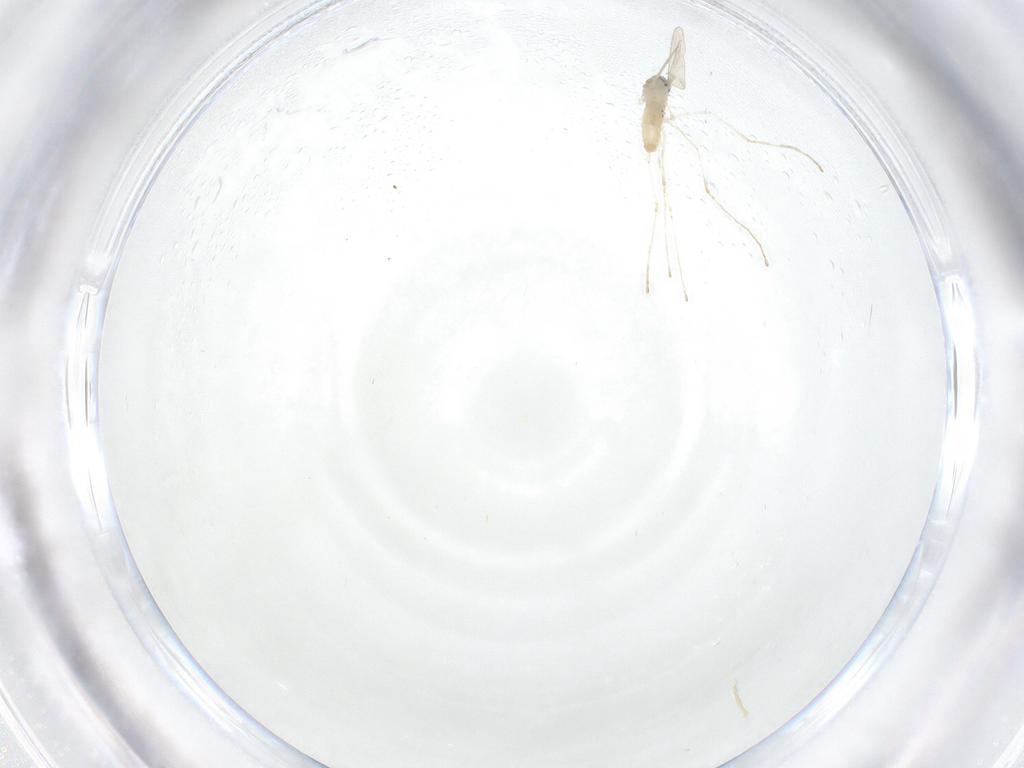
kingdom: Animalia
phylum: Arthropoda
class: Insecta
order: Diptera
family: Cecidomyiidae
